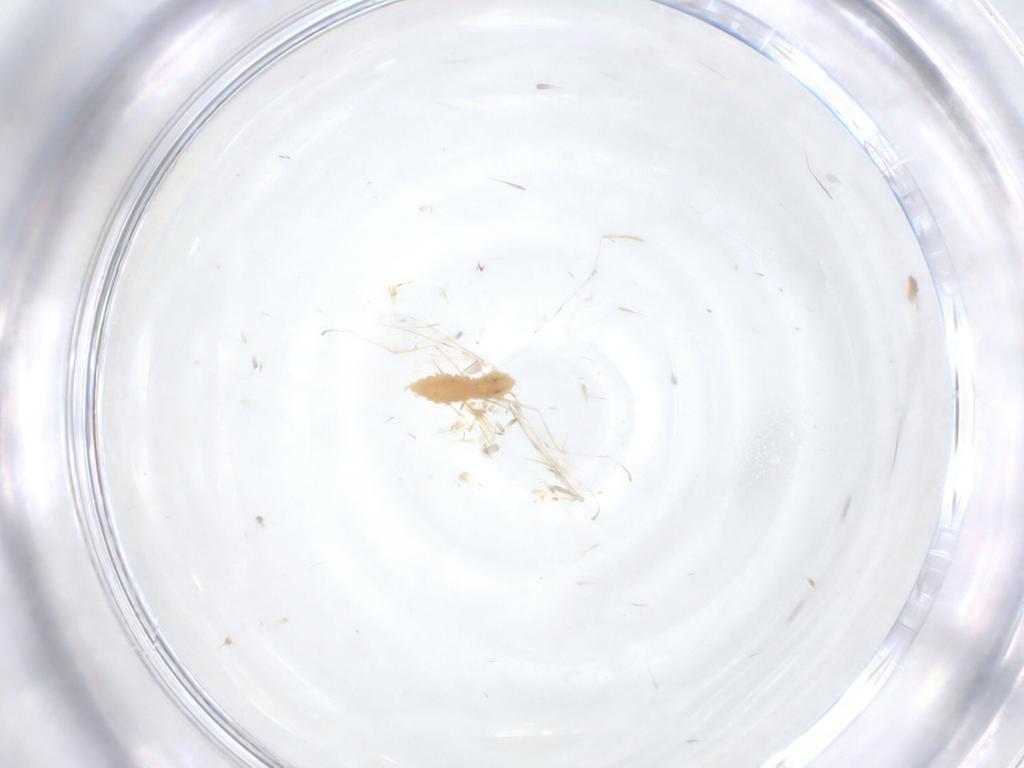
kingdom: Animalia
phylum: Arthropoda
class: Insecta
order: Diptera
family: Cecidomyiidae
